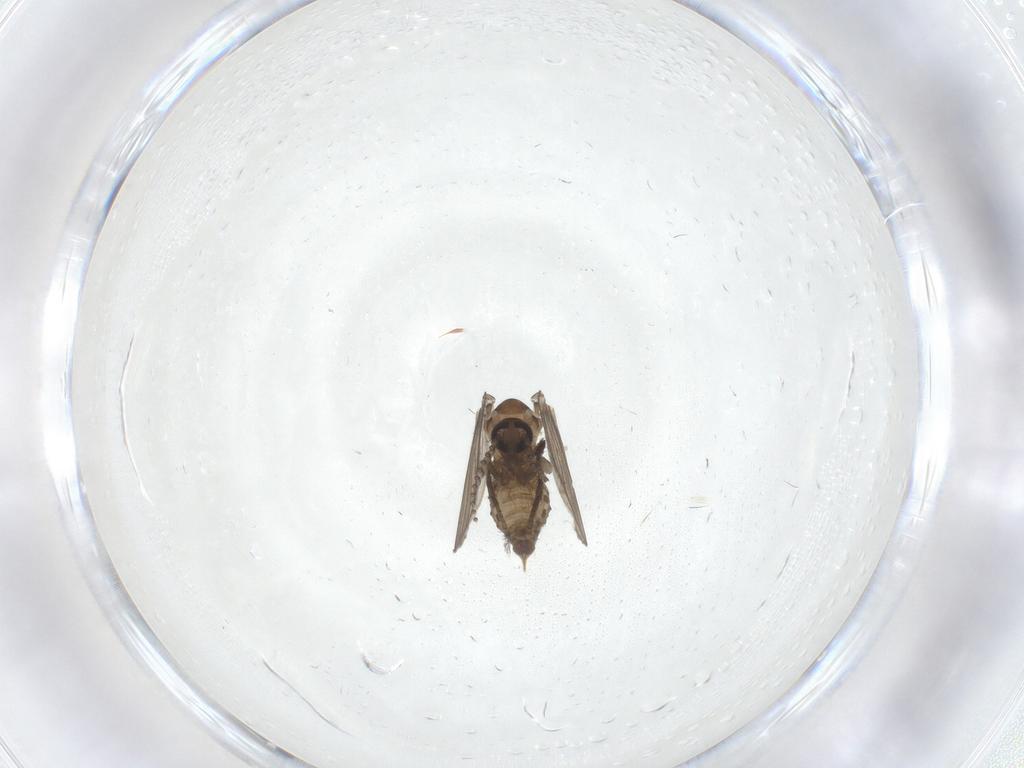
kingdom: Animalia
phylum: Arthropoda
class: Insecta
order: Diptera
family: Psychodidae
